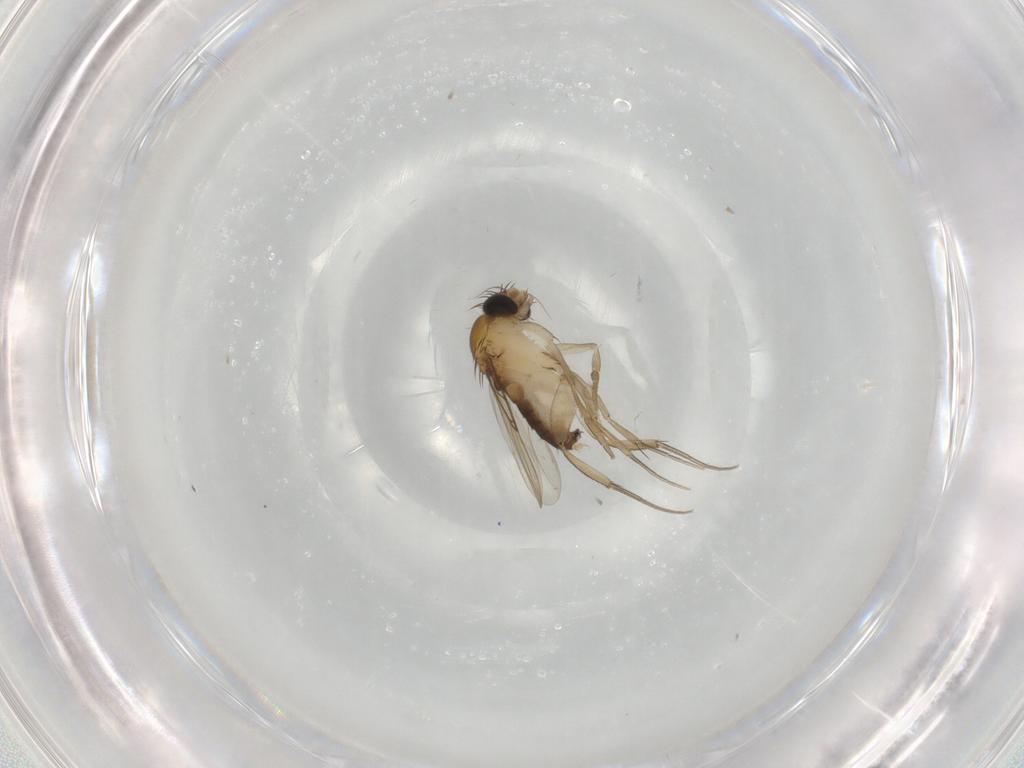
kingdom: Animalia
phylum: Arthropoda
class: Insecta
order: Diptera
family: Phoridae
